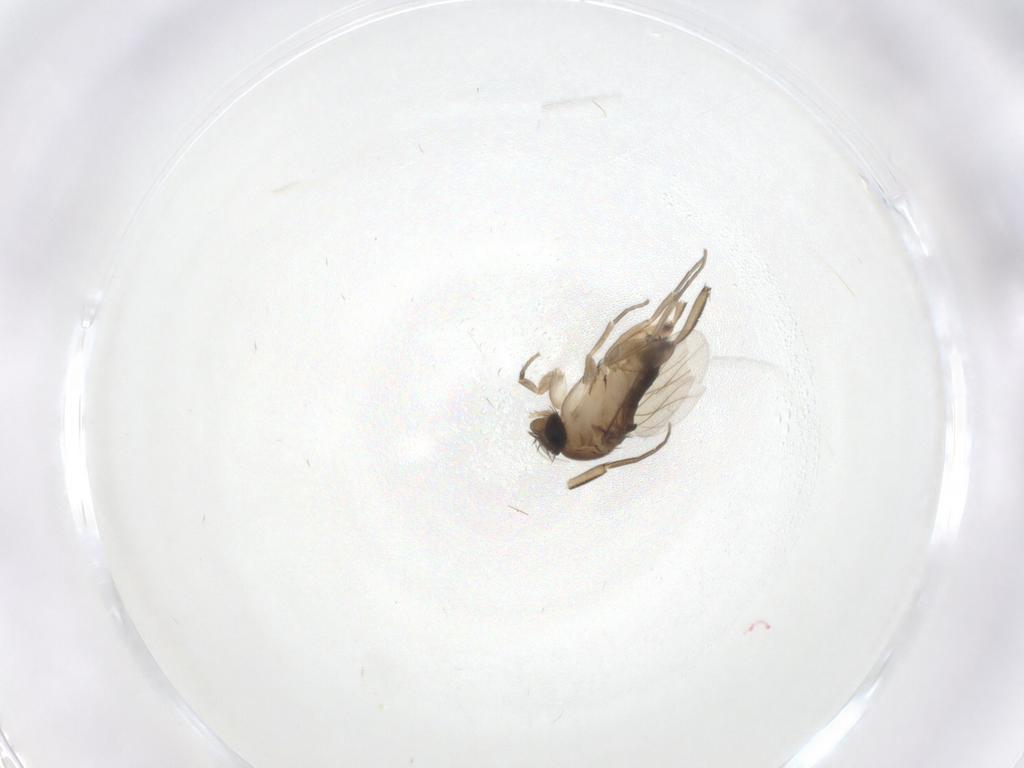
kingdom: Animalia
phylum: Arthropoda
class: Insecta
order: Diptera
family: Phoridae
